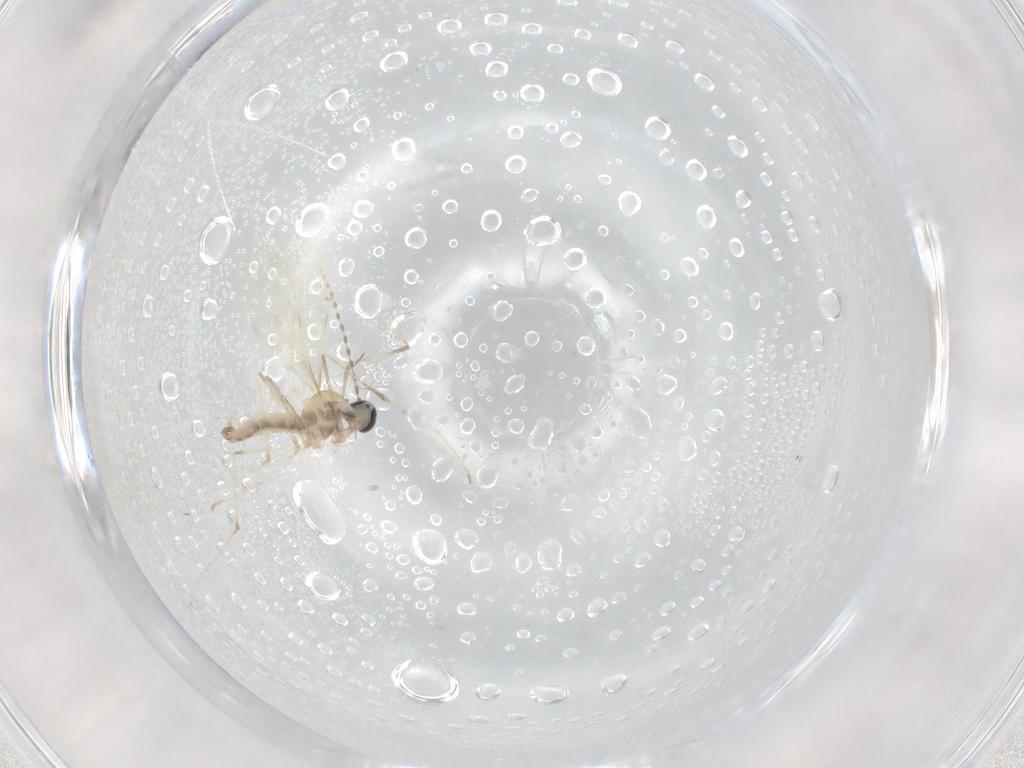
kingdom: Animalia
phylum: Arthropoda
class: Insecta
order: Diptera
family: Cecidomyiidae
